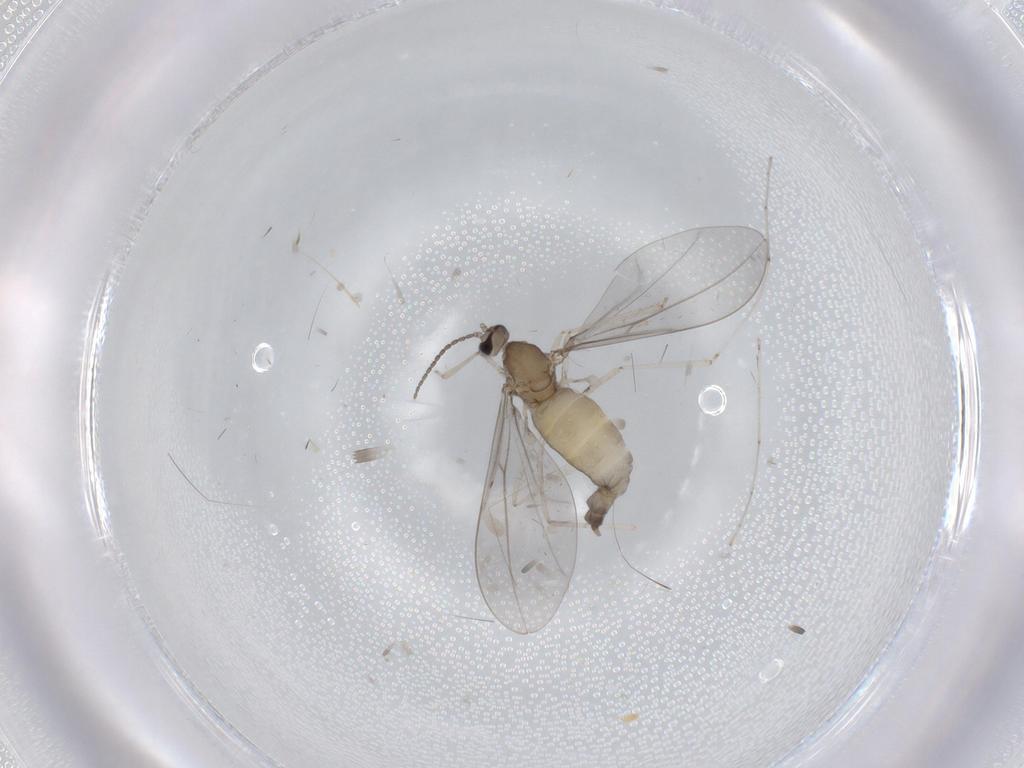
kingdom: Animalia
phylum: Arthropoda
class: Insecta
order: Diptera
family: Cecidomyiidae
